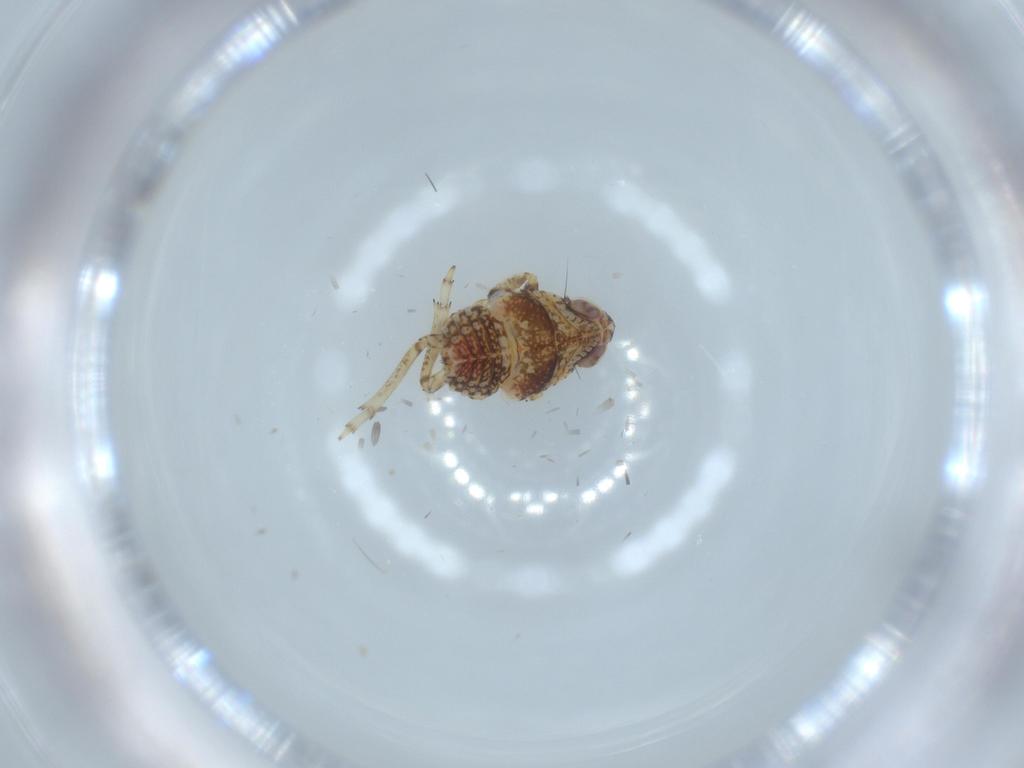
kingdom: Animalia
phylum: Arthropoda
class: Insecta
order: Hemiptera
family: Issidae
